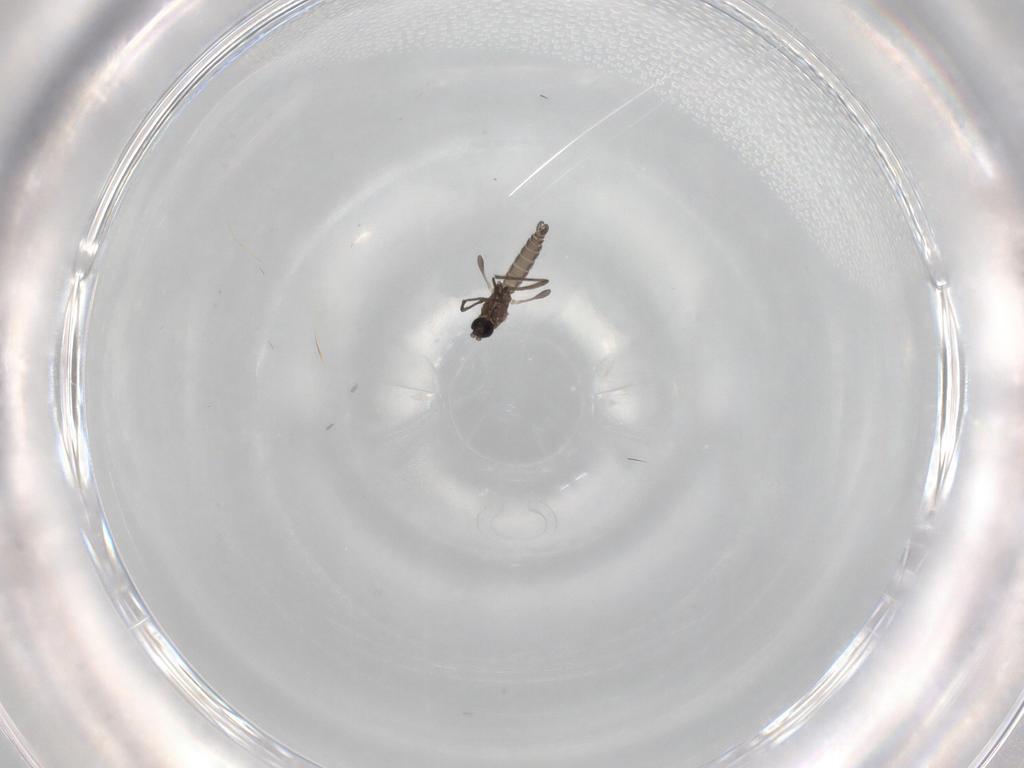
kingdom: Animalia
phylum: Arthropoda
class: Insecta
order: Diptera
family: Sciaridae
